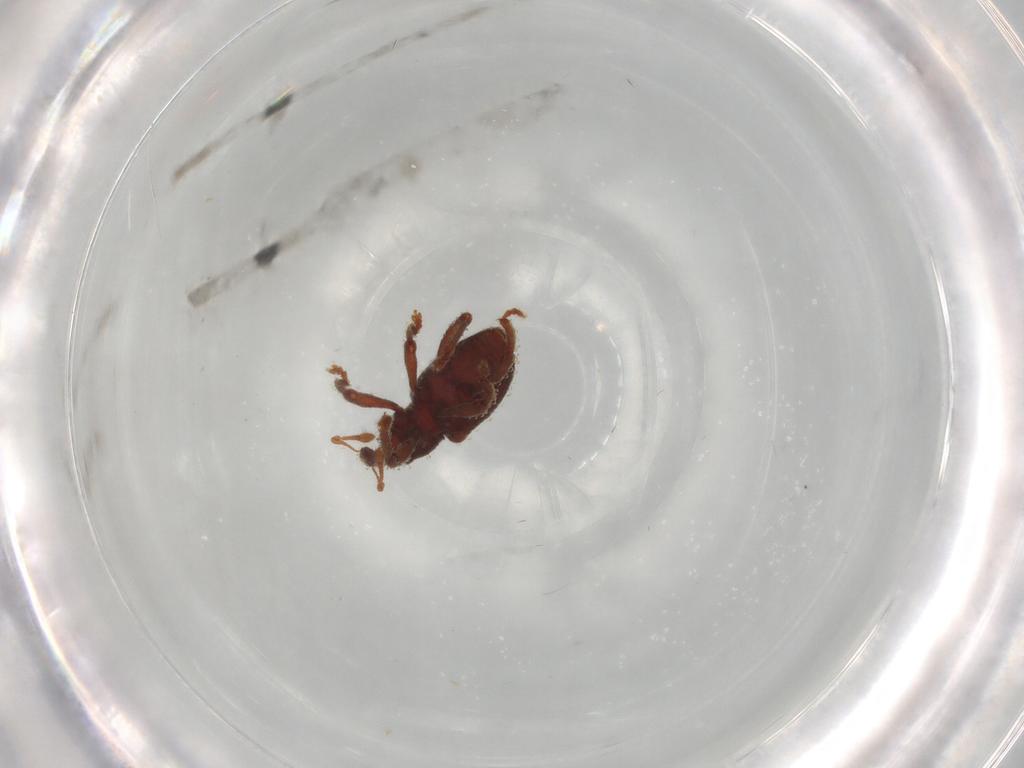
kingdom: Animalia
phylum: Arthropoda
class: Insecta
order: Coleoptera
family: Curculionidae
